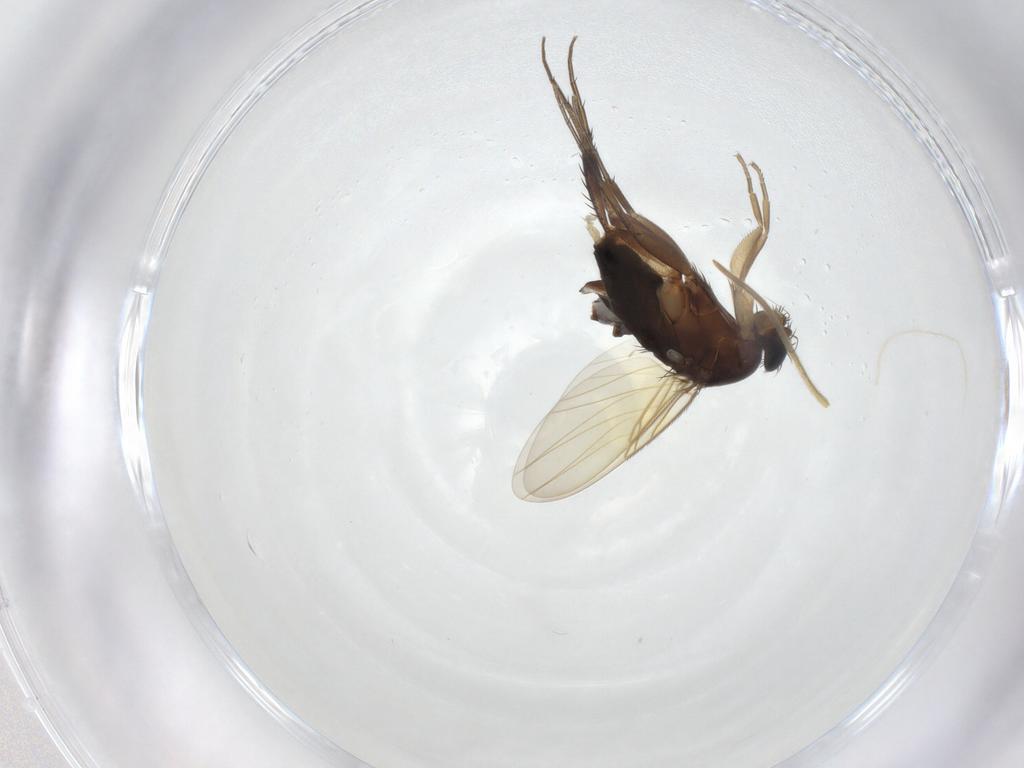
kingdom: Animalia
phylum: Arthropoda
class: Insecta
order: Diptera
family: Phoridae
